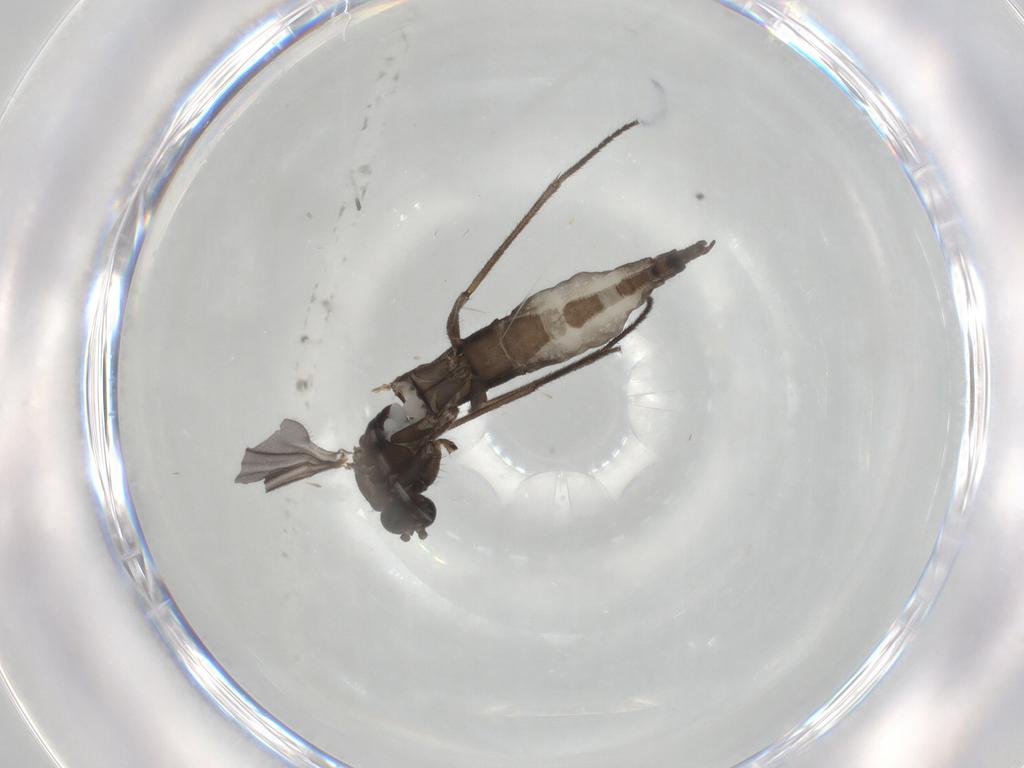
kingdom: Animalia
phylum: Arthropoda
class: Insecta
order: Diptera
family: Sciaridae
